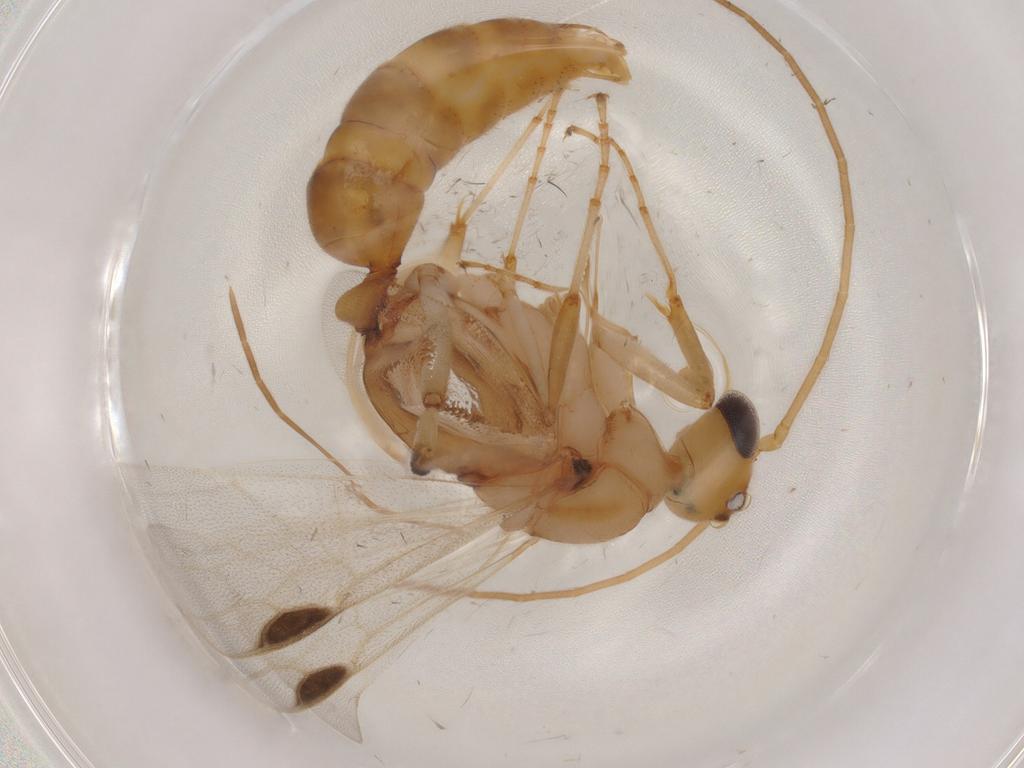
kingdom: Animalia
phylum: Arthropoda
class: Insecta
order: Hymenoptera
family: Formicidae
